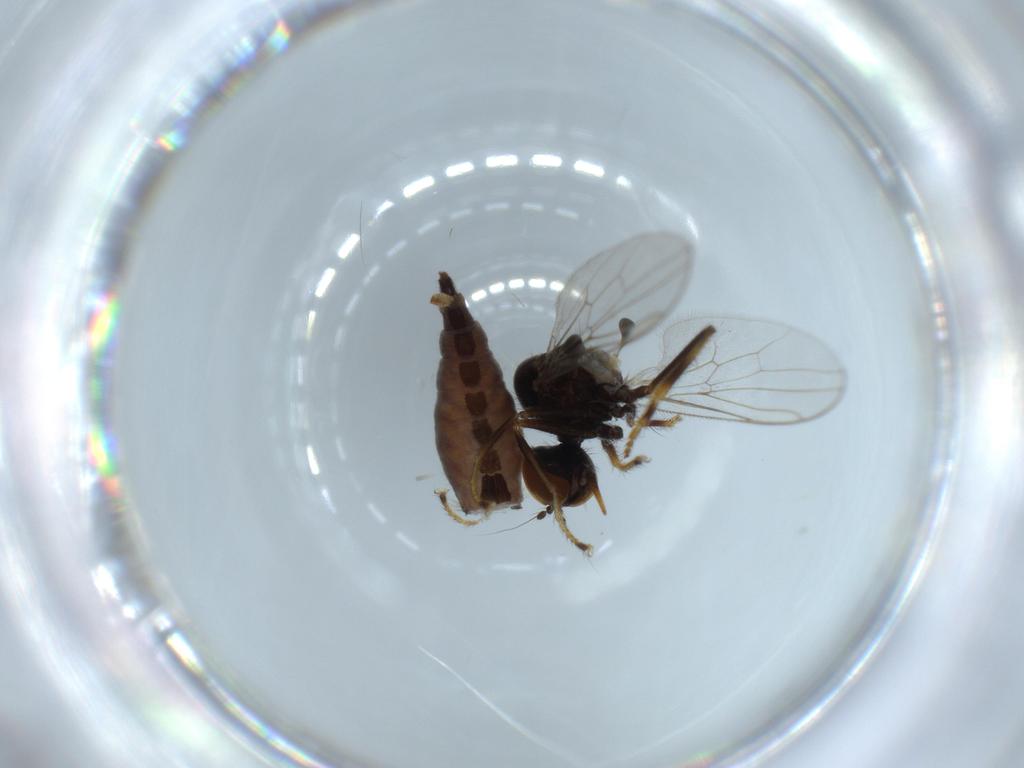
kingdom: Animalia
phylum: Arthropoda
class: Insecta
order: Diptera
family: Hybotidae
